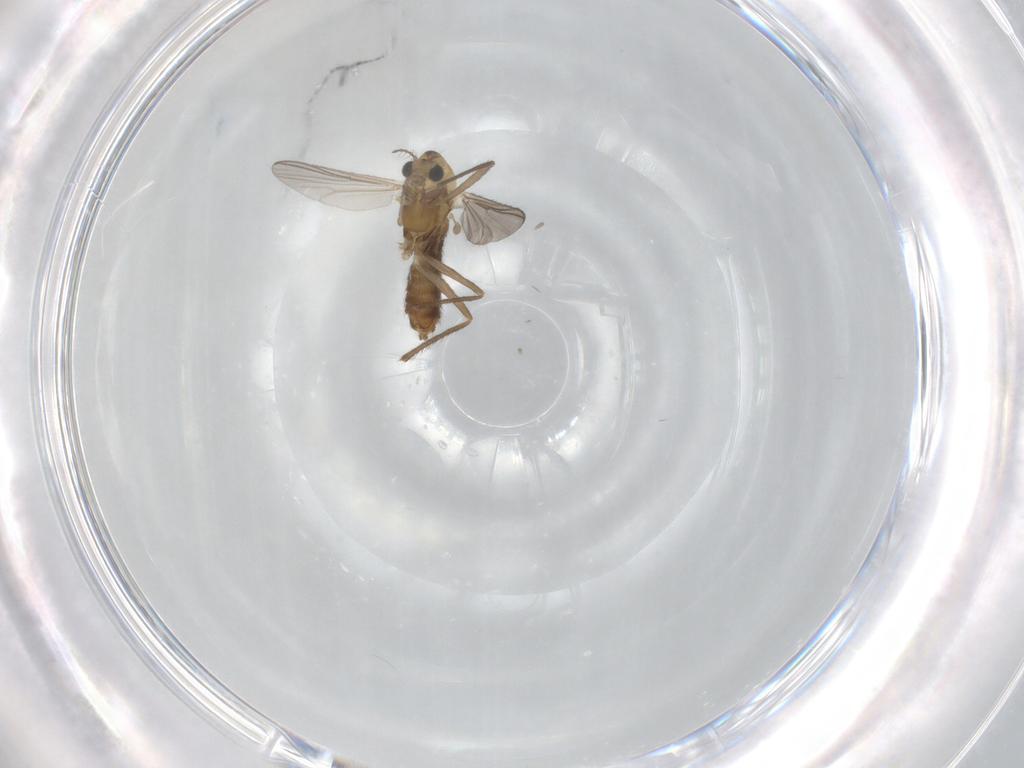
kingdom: Animalia
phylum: Arthropoda
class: Insecta
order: Diptera
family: Chironomidae
